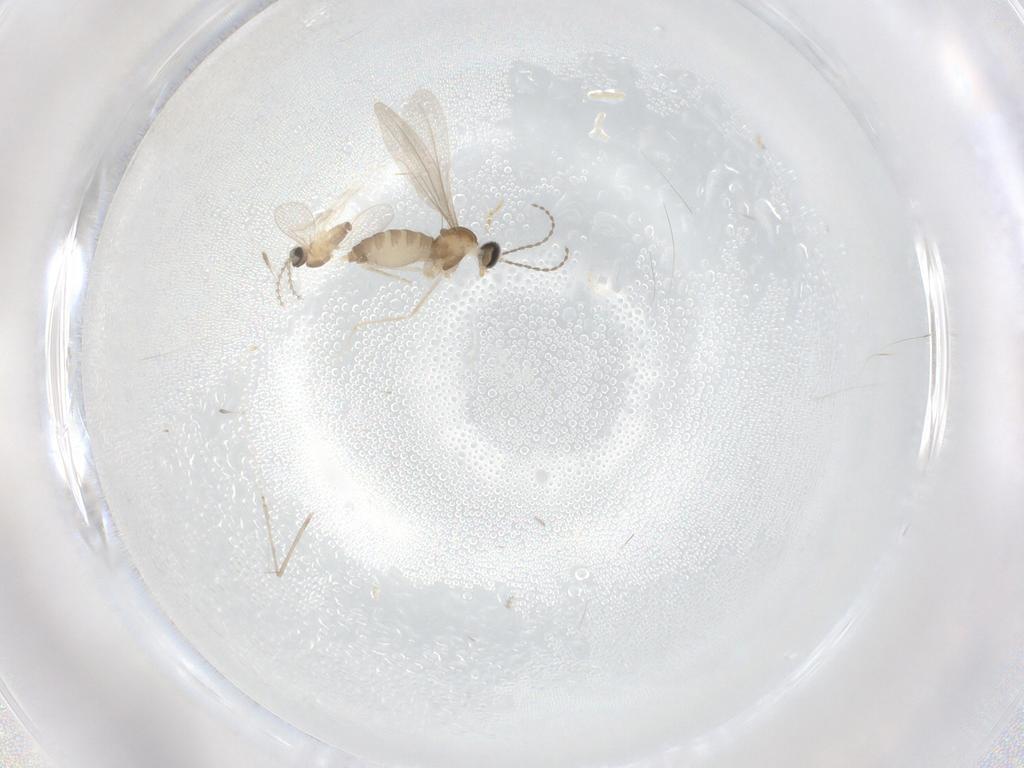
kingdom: Animalia
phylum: Arthropoda
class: Insecta
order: Diptera
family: Cecidomyiidae
